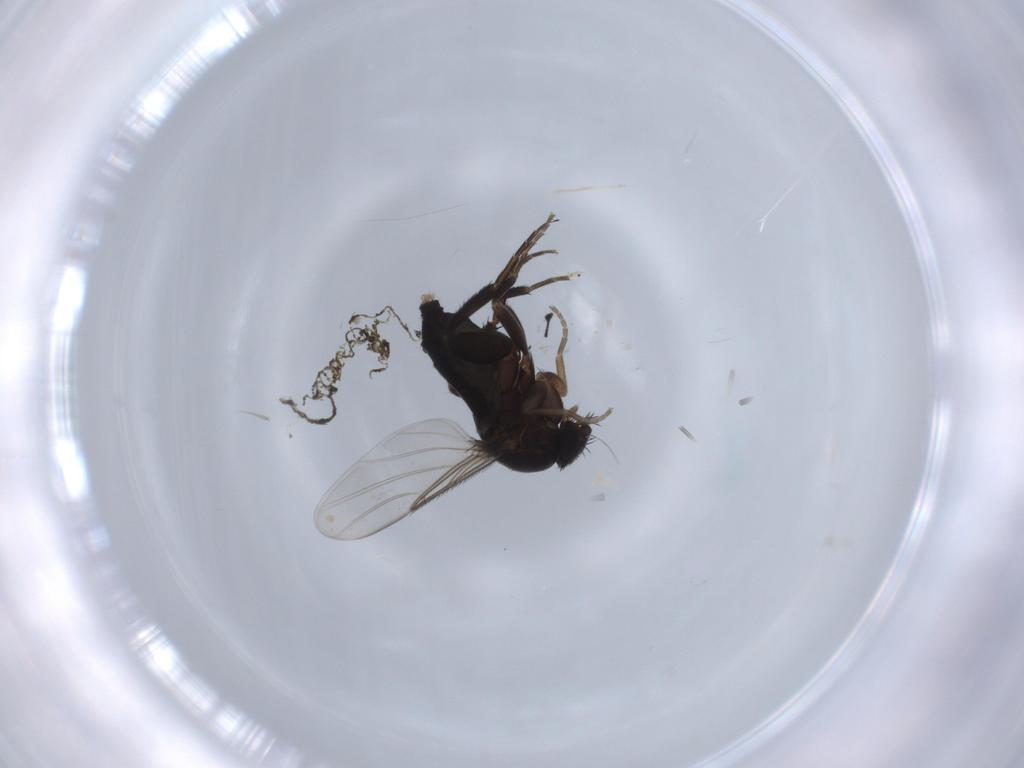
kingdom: Animalia
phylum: Arthropoda
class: Insecta
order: Diptera
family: Phoridae
